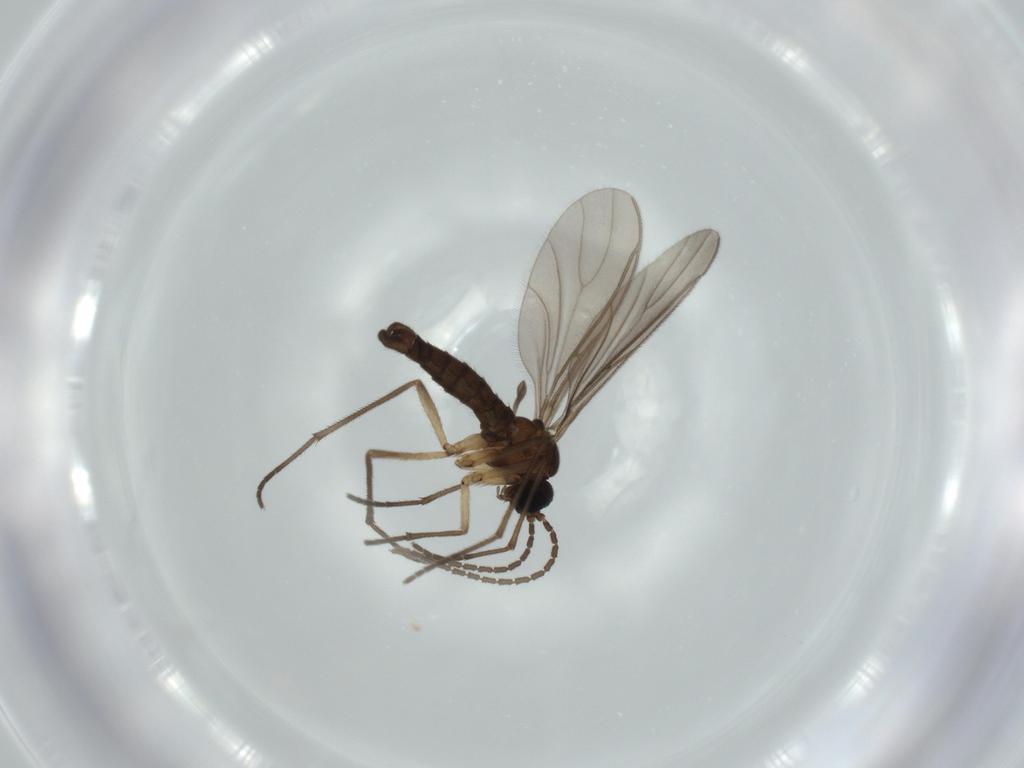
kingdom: Animalia
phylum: Arthropoda
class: Insecta
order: Diptera
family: Sciaridae
